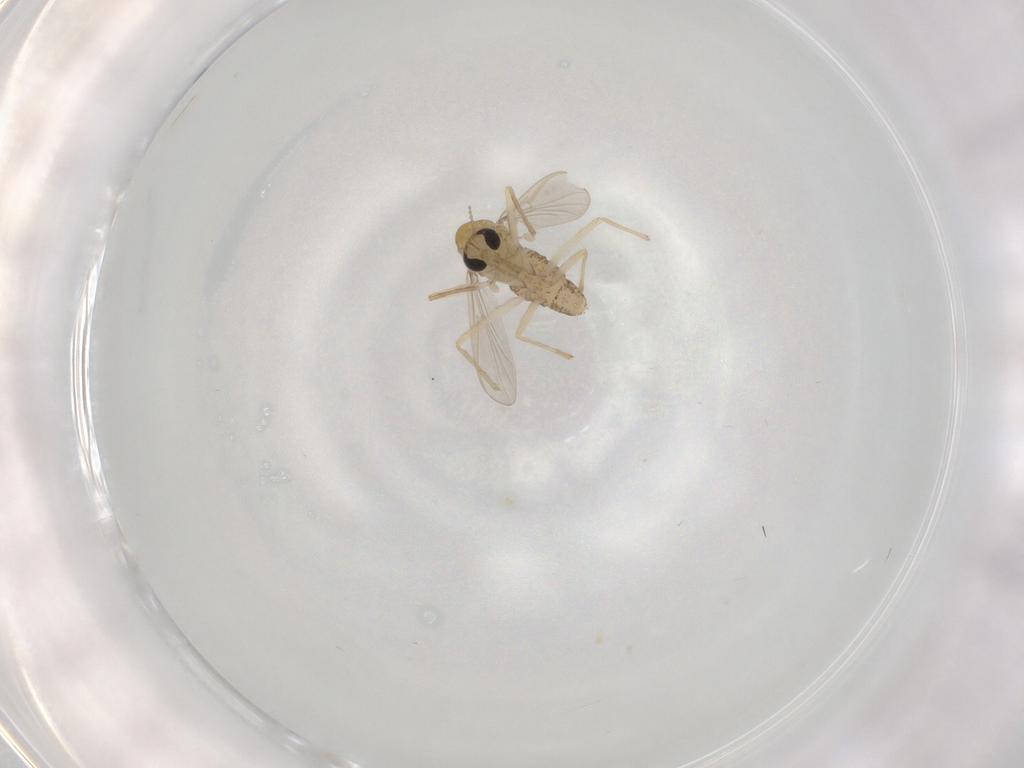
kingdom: Animalia
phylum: Arthropoda
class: Insecta
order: Diptera
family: Chironomidae
